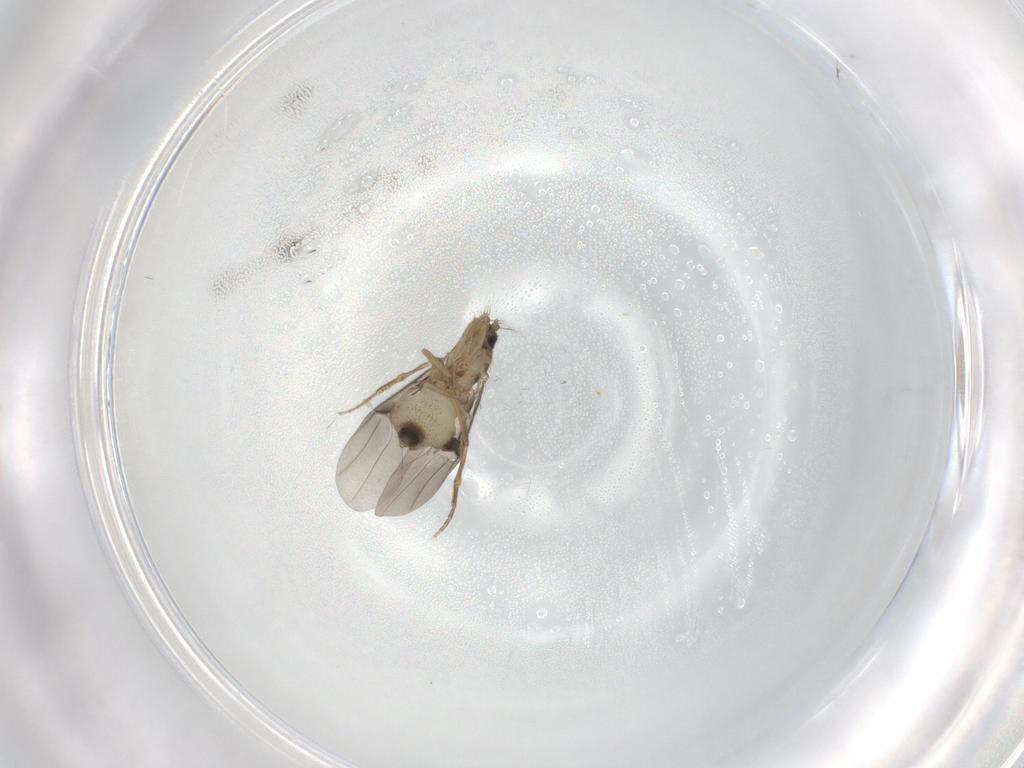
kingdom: Animalia
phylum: Arthropoda
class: Insecta
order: Diptera
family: Phoridae
